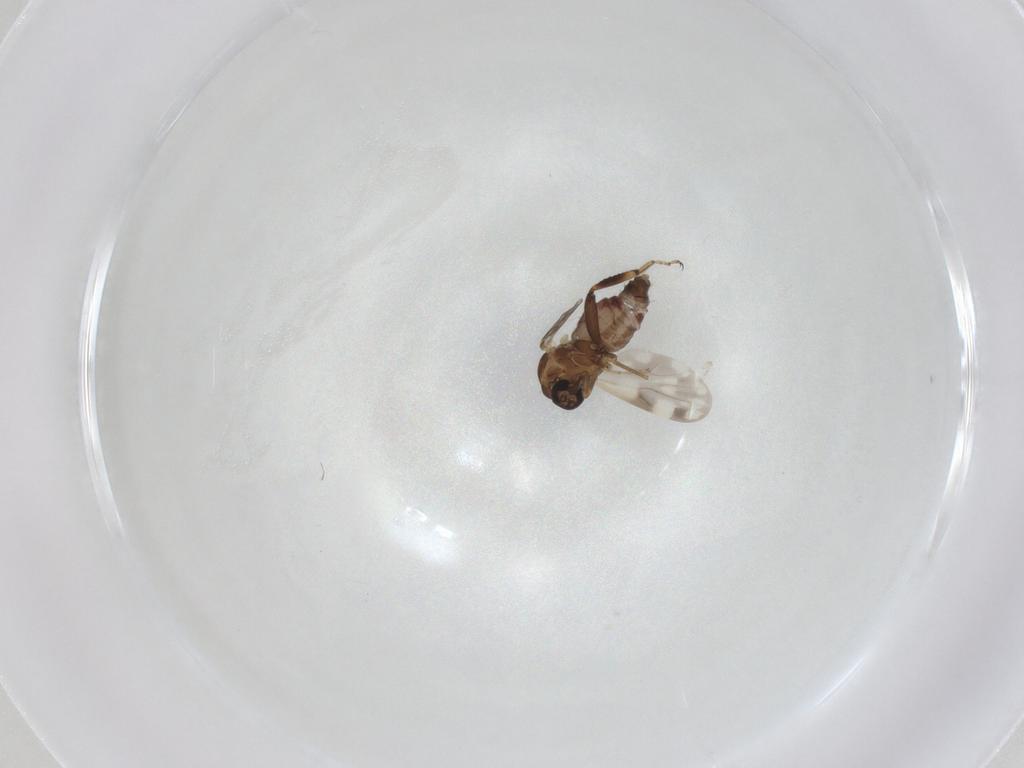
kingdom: Animalia
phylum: Arthropoda
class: Insecta
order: Diptera
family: Ceratopogonidae
